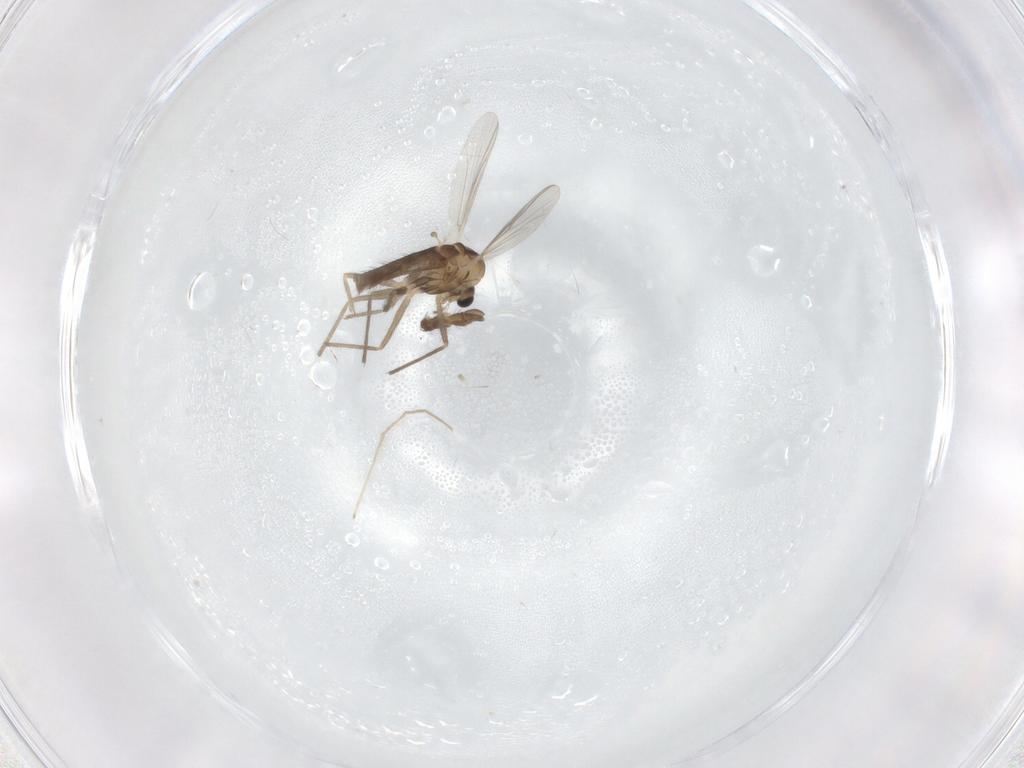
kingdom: Animalia
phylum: Arthropoda
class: Insecta
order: Diptera
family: Chironomidae
